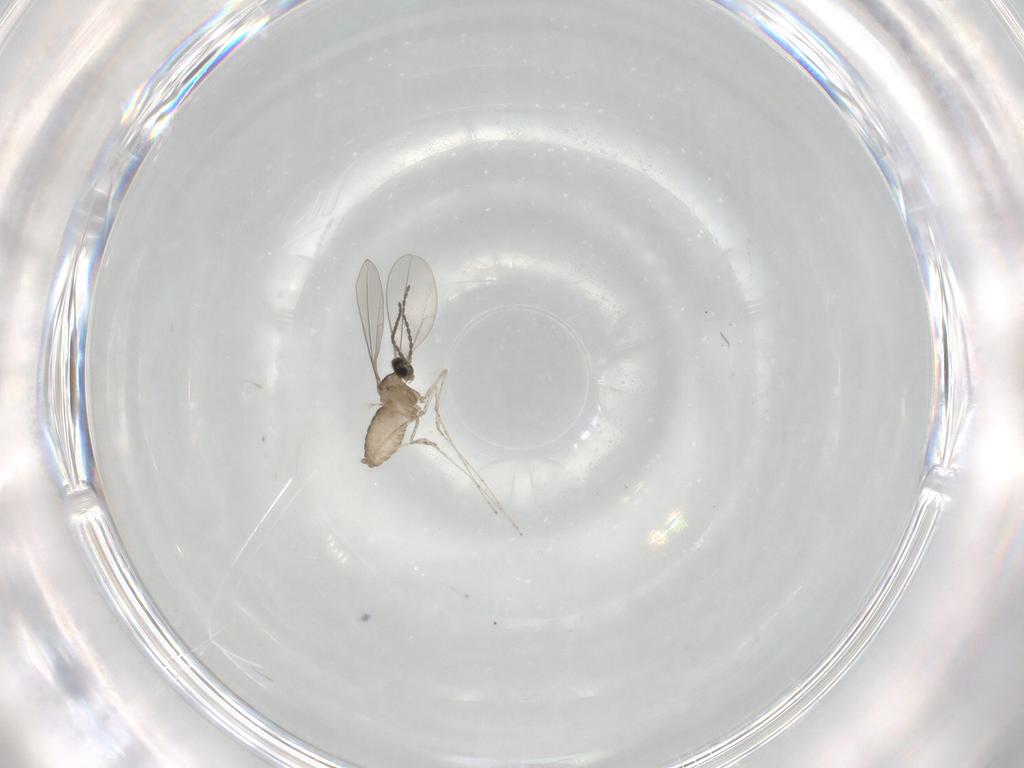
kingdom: Animalia
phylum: Arthropoda
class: Insecta
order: Diptera
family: Cecidomyiidae
